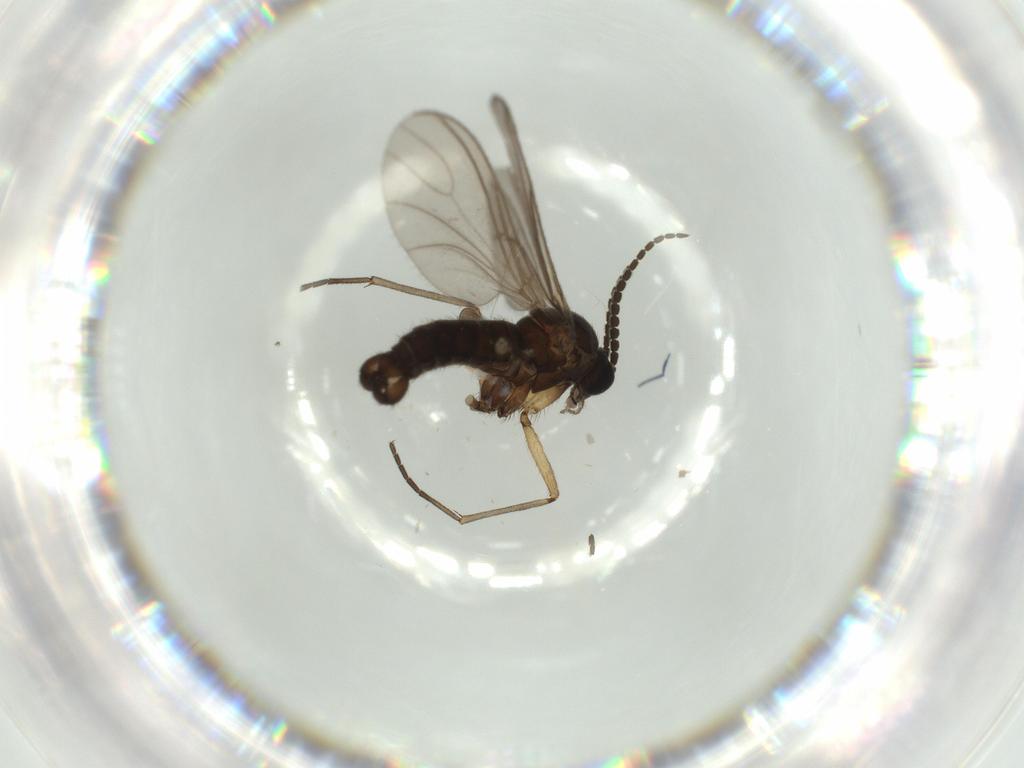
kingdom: Animalia
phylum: Arthropoda
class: Insecta
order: Diptera
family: Sciaridae
